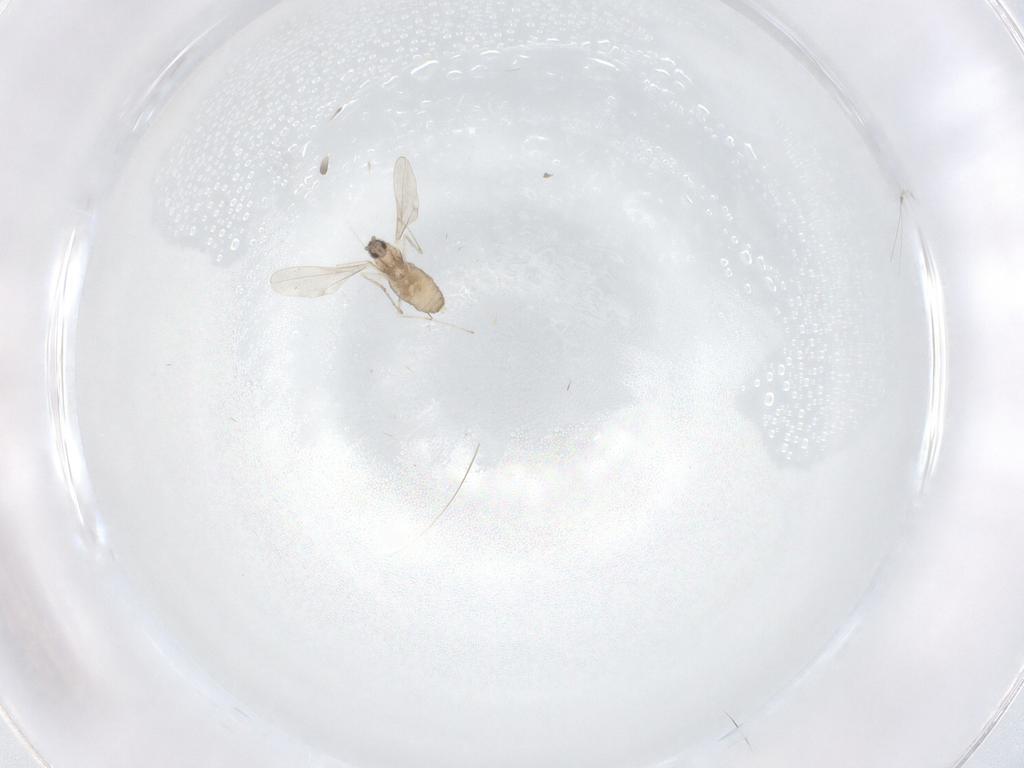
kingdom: Animalia
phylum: Arthropoda
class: Insecta
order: Diptera
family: Cecidomyiidae
